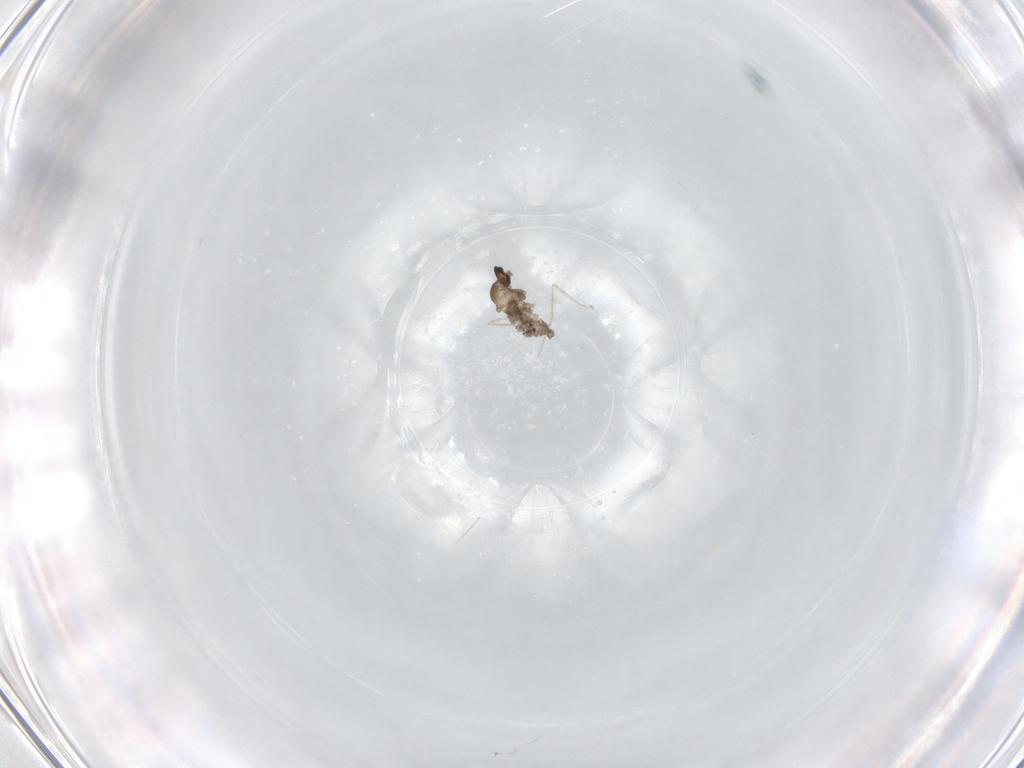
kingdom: Animalia
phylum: Arthropoda
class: Insecta
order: Diptera
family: Cecidomyiidae
